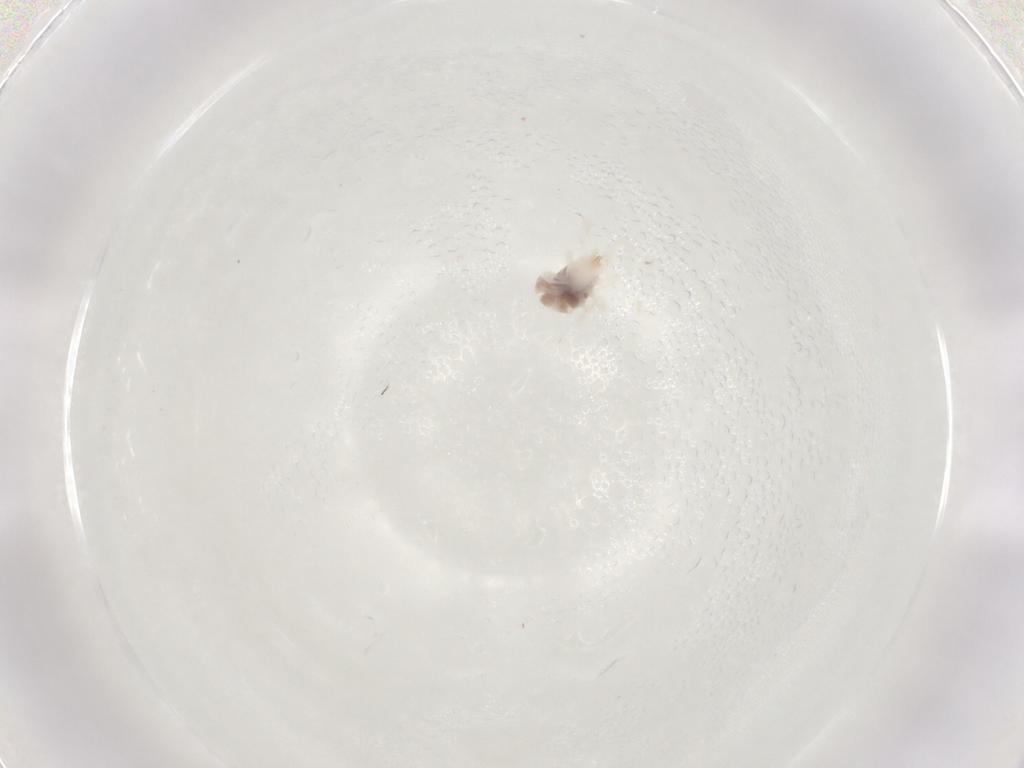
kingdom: Animalia
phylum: Arthropoda
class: Arachnida
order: Sarcoptiformes
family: Galumnidae
